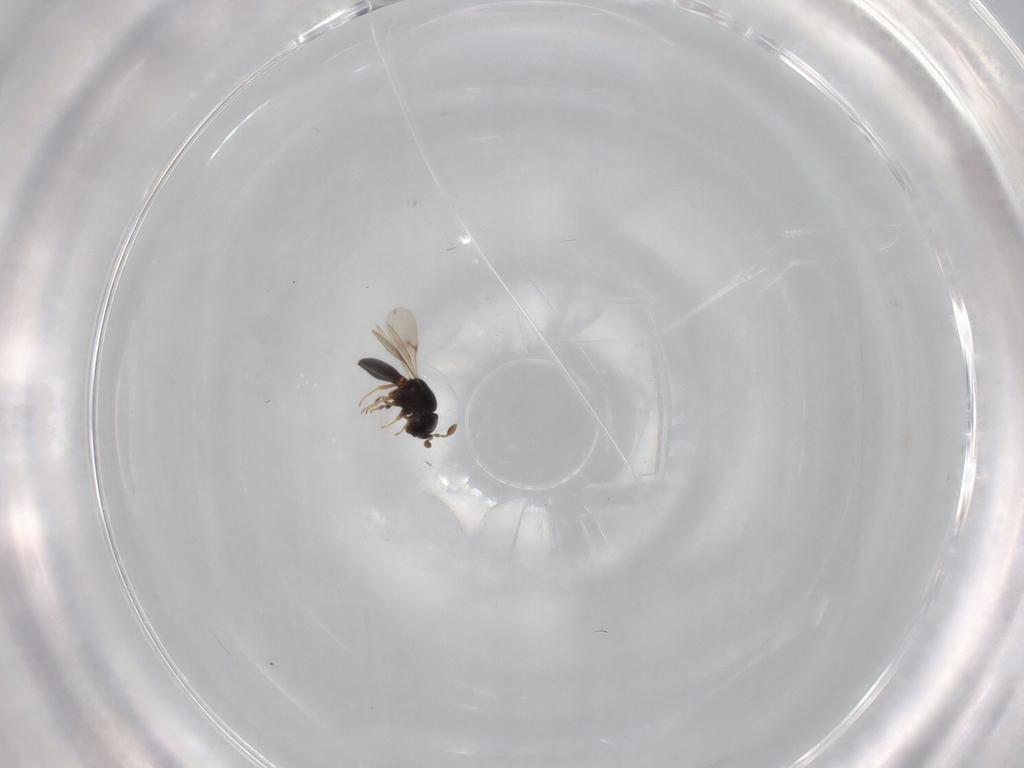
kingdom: Animalia
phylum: Arthropoda
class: Arachnida
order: Araneae
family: Pholcidae
